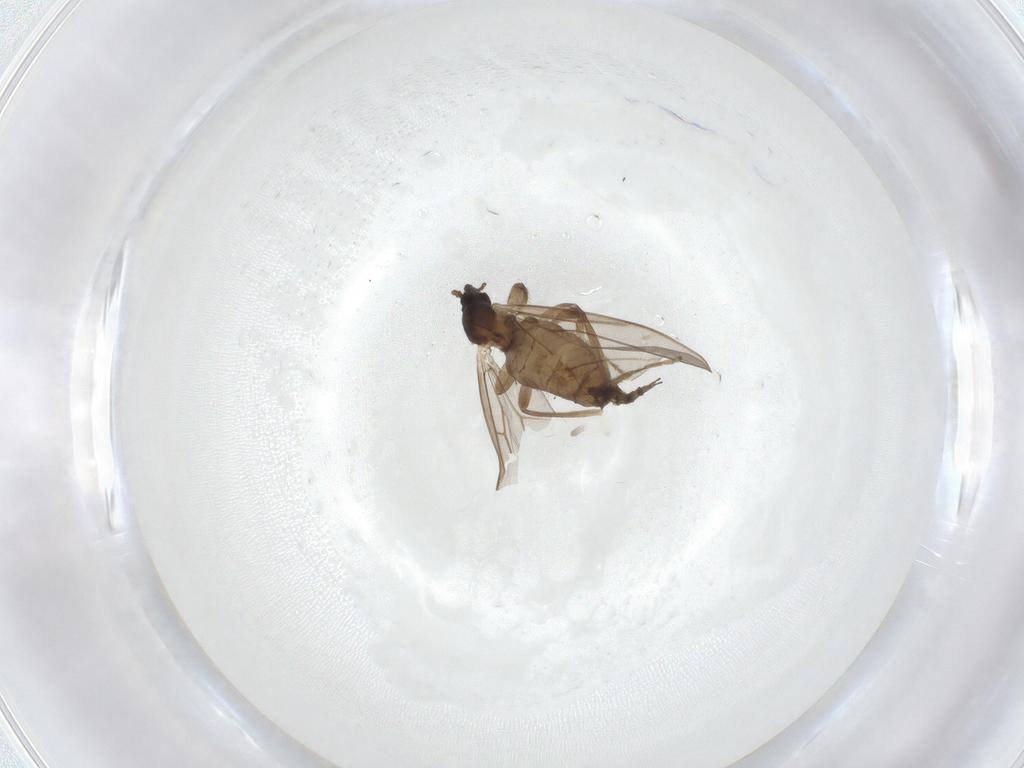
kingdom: Animalia
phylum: Arthropoda
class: Insecta
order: Diptera
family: Cecidomyiidae
